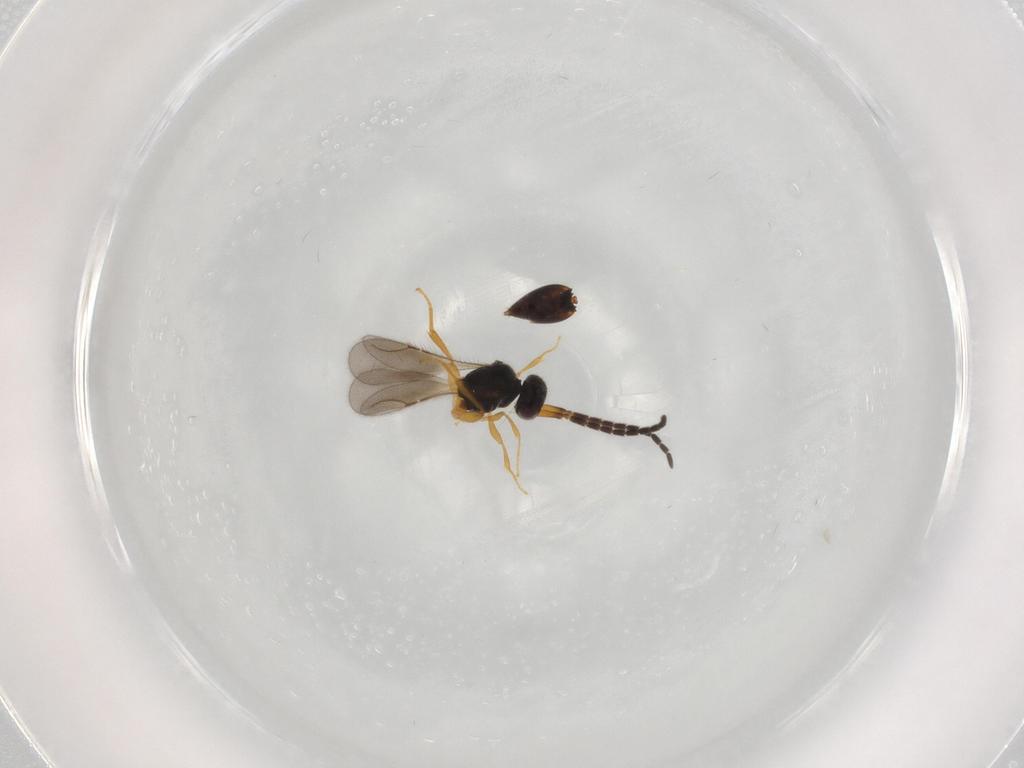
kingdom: Animalia
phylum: Arthropoda
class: Insecta
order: Hymenoptera
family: Ceraphronidae
